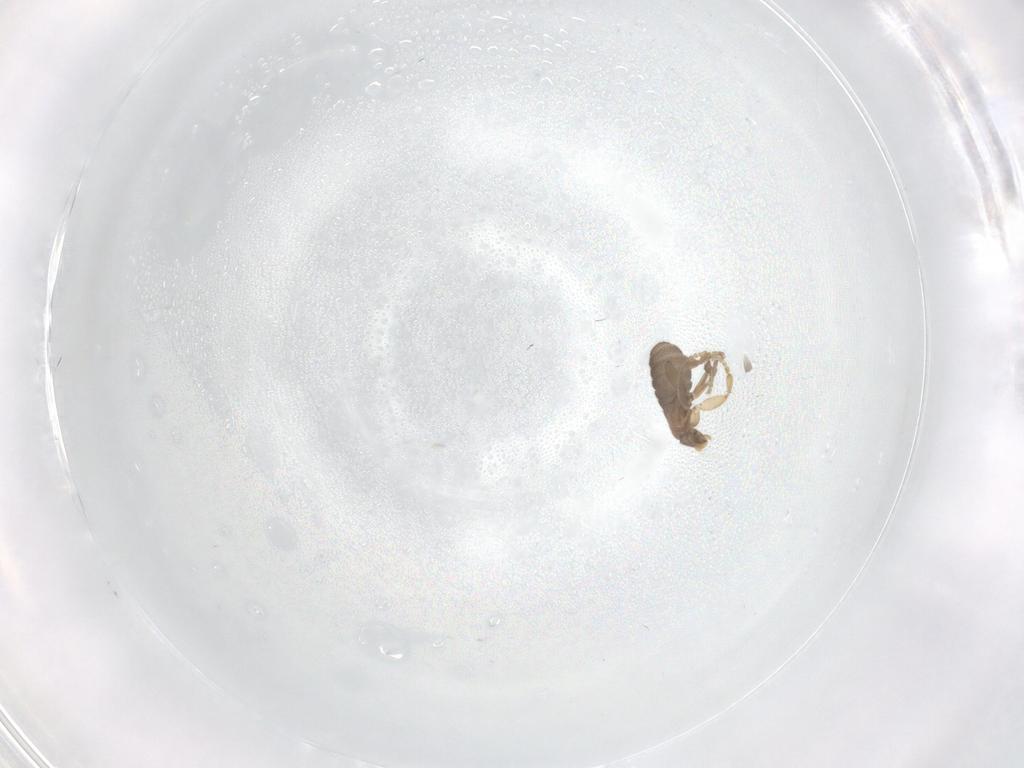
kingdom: Animalia
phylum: Arthropoda
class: Insecta
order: Diptera
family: Phoridae
